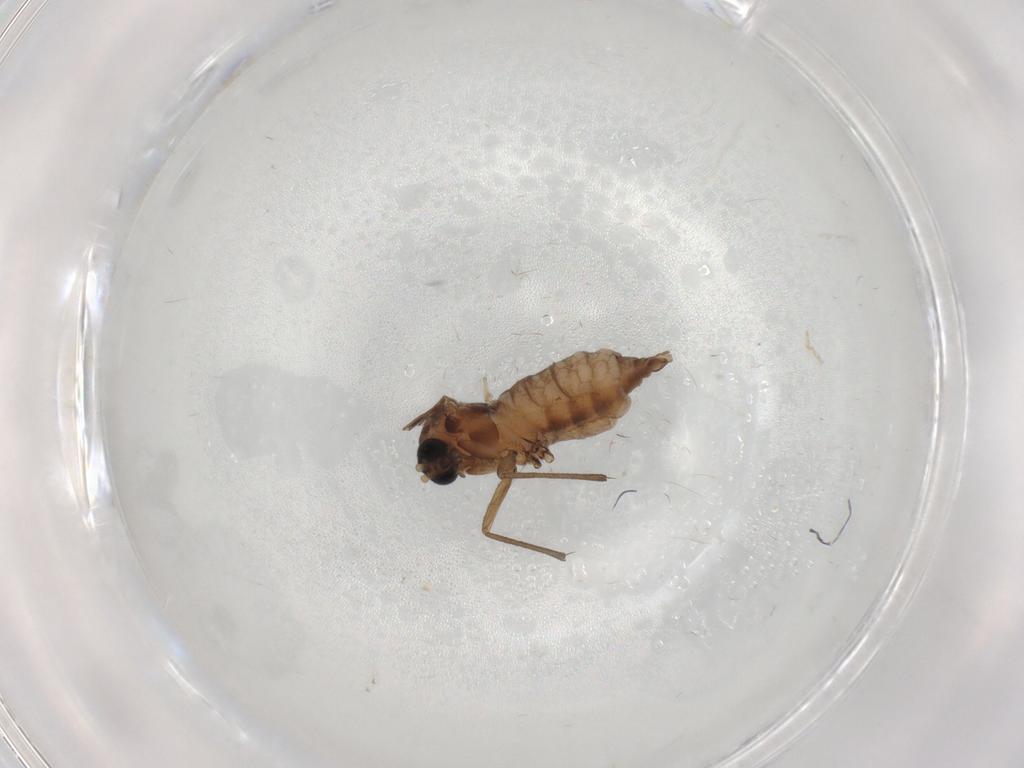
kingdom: Animalia
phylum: Arthropoda
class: Insecta
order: Diptera
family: Sciaridae
